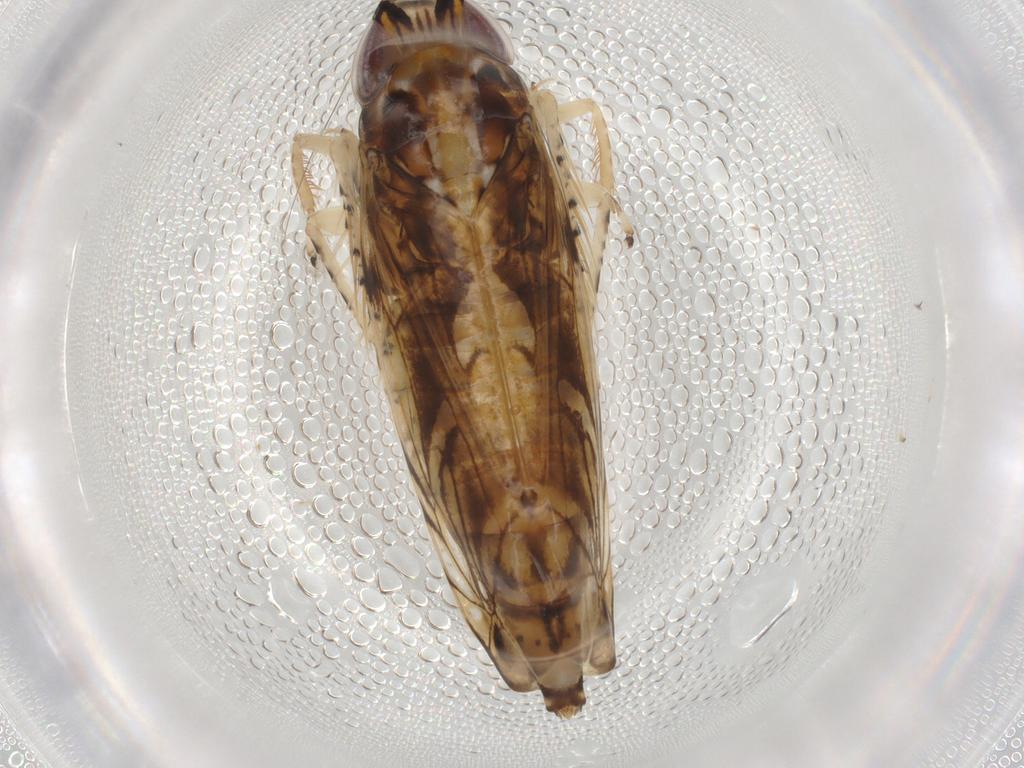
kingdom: Animalia
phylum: Arthropoda
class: Insecta
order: Hemiptera
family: Cicadellidae
